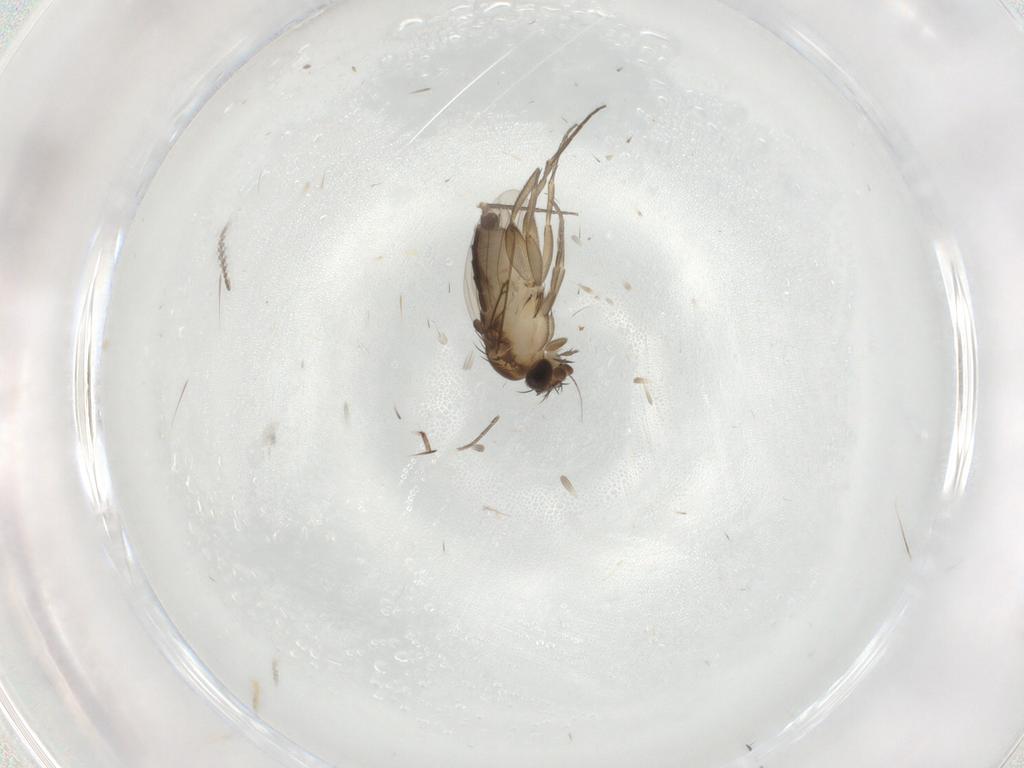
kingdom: Animalia
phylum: Arthropoda
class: Insecta
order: Diptera
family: Phoridae
